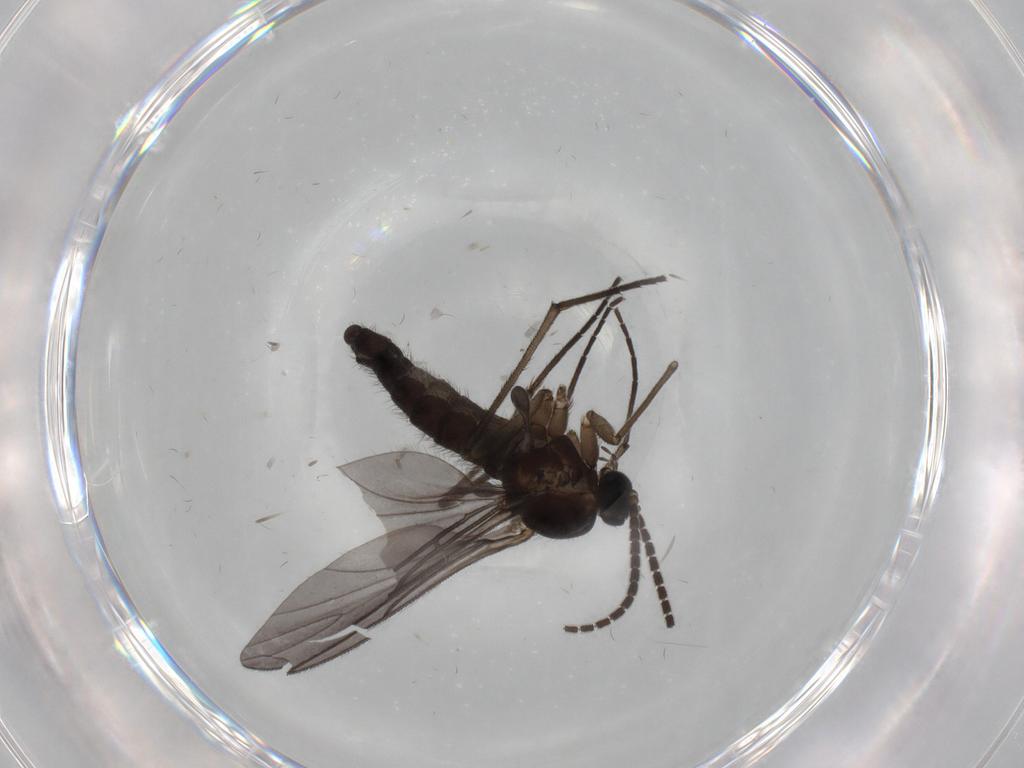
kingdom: Animalia
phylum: Arthropoda
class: Insecta
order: Diptera
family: Sciaridae
